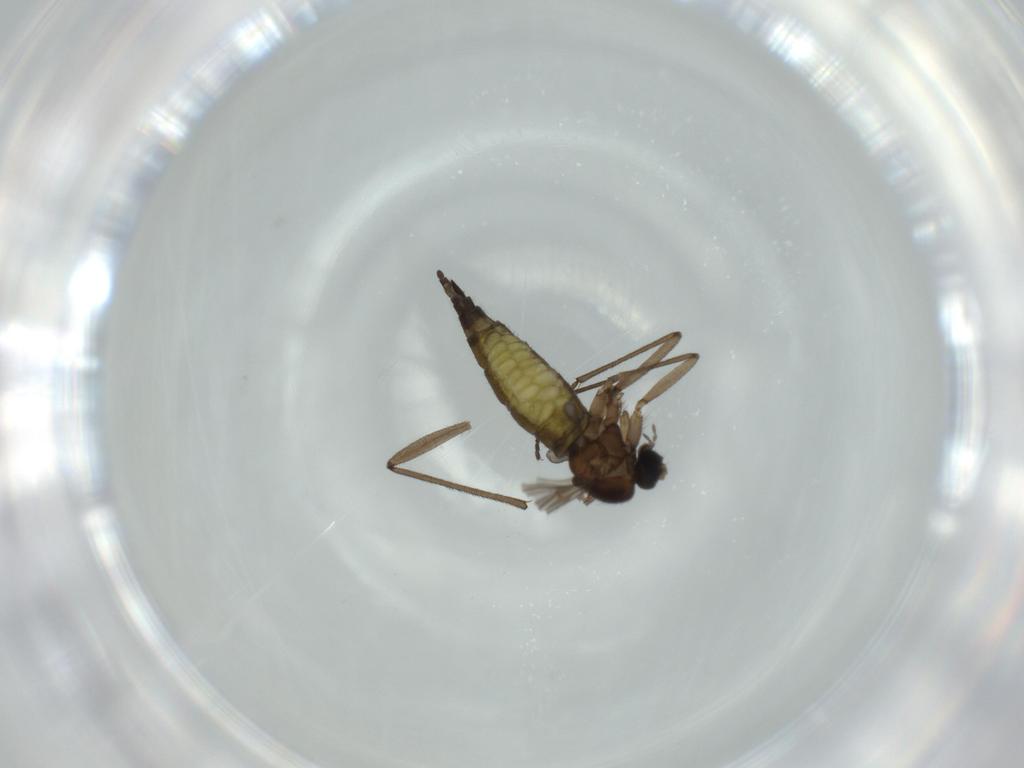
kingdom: Animalia
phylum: Arthropoda
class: Insecta
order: Diptera
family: Sciaridae
